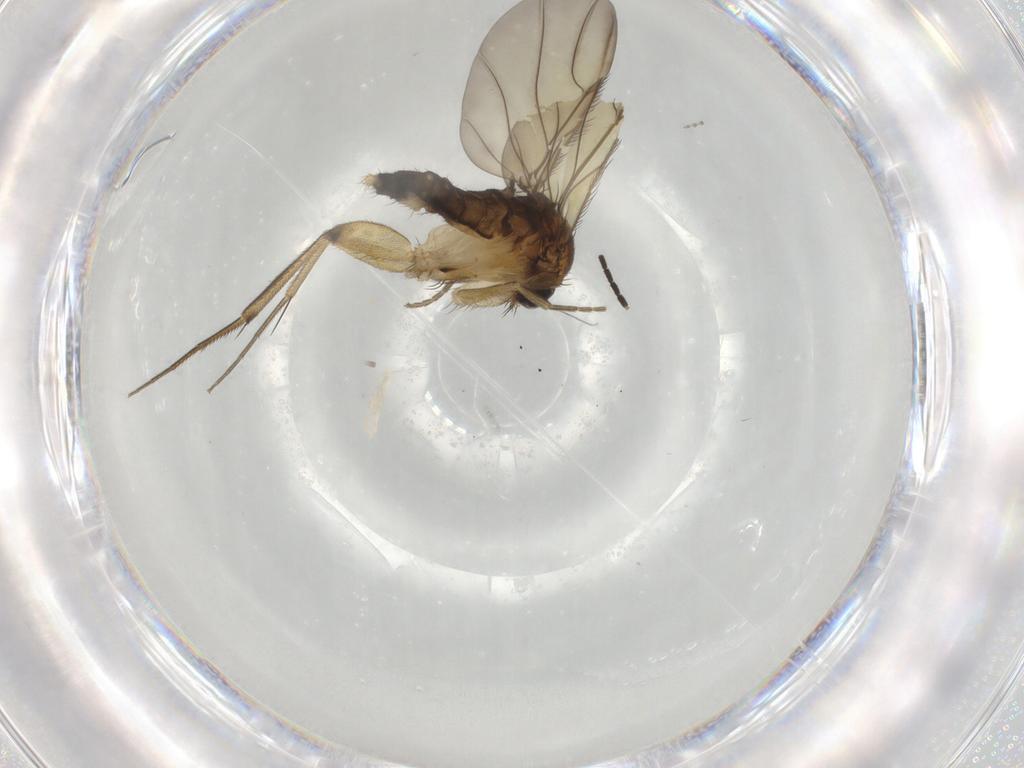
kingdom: Animalia
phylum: Arthropoda
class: Insecta
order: Diptera
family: Phoridae
